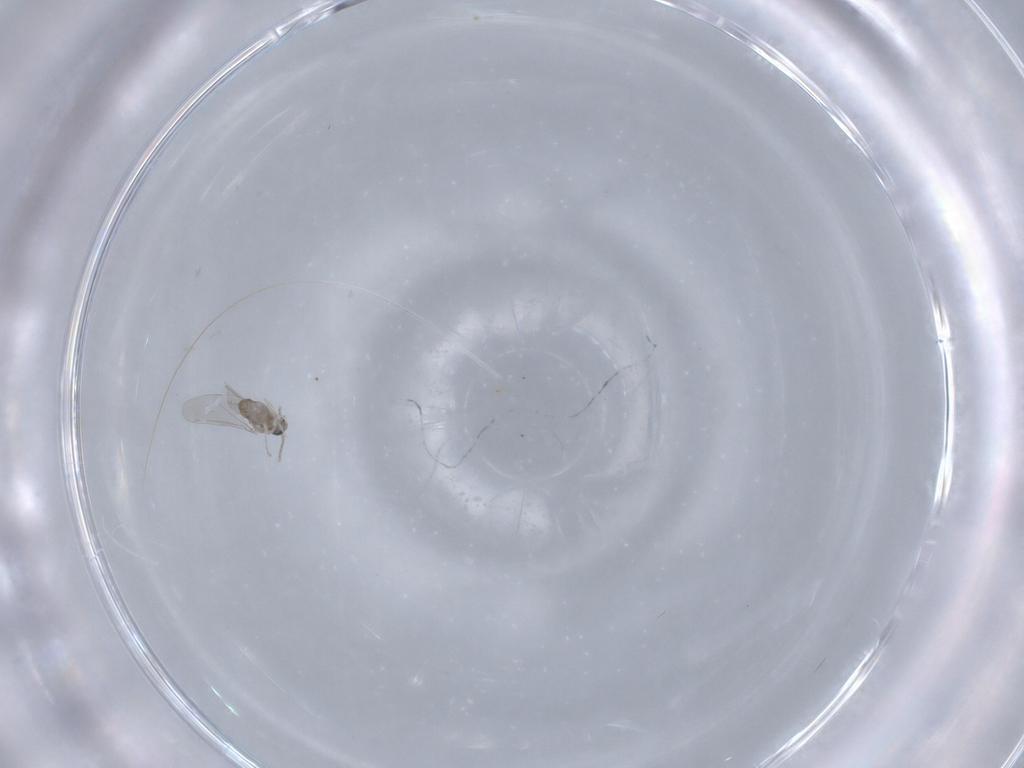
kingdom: Animalia
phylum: Arthropoda
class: Insecta
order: Diptera
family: Cecidomyiidae
